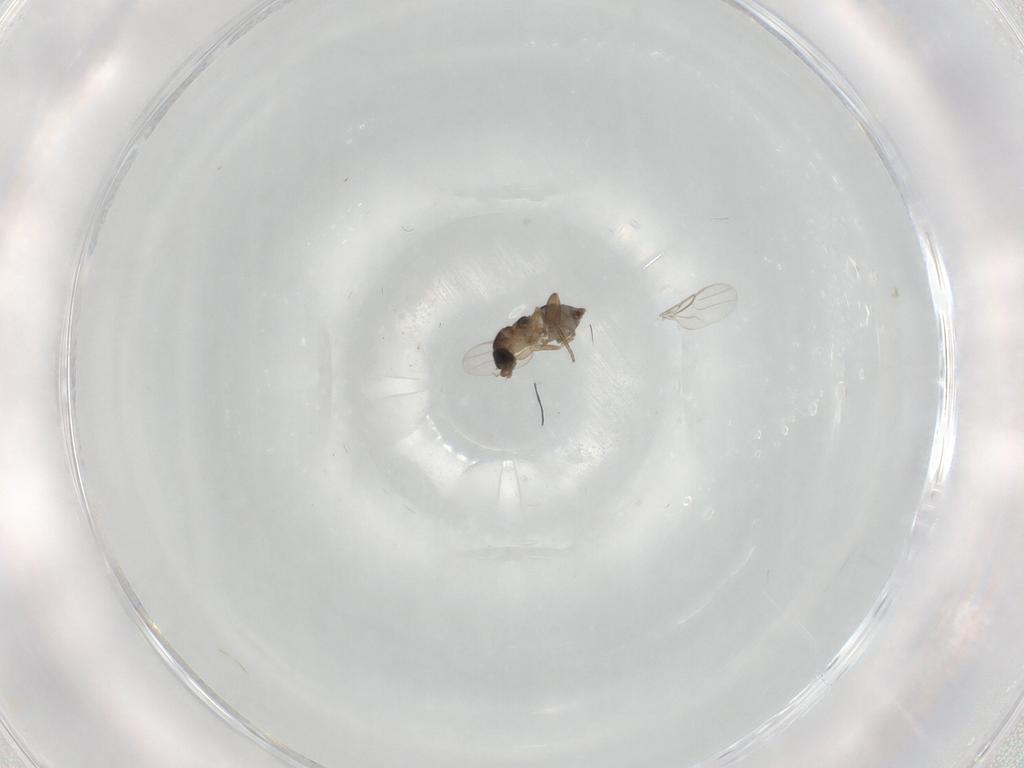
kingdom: Animalia
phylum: Arthropoda
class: Insecta
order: Diptera
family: Phoridae
